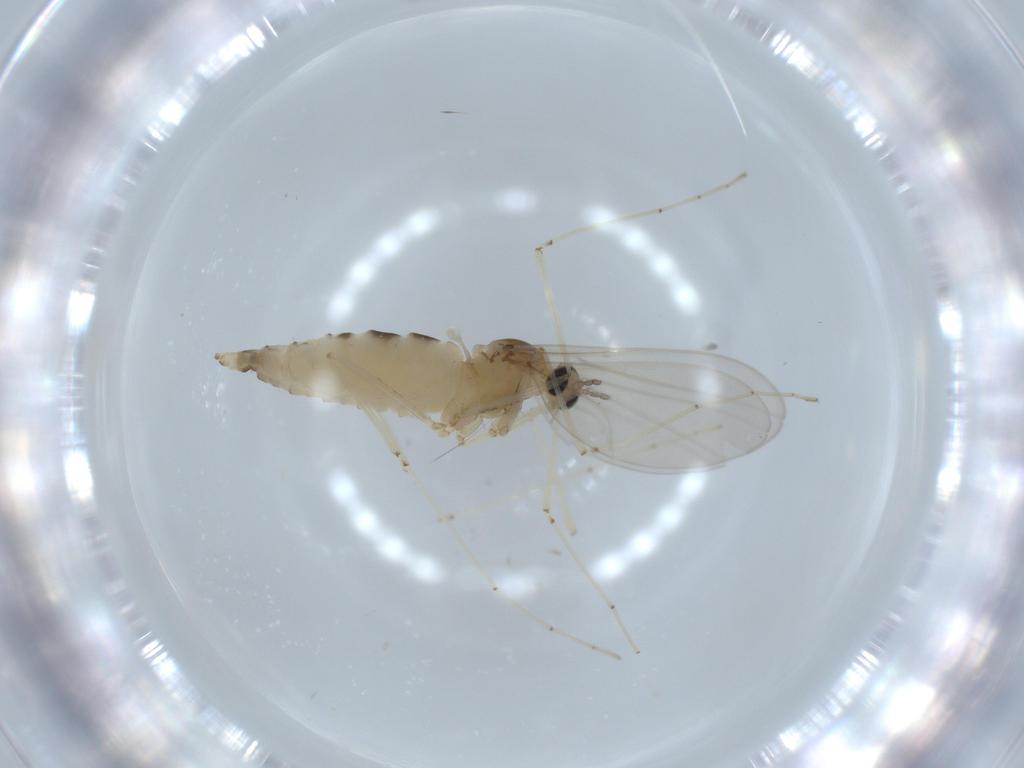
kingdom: Animalia
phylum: Arthropoda
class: Insecta
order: Diptera
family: Cecidomyiidae
